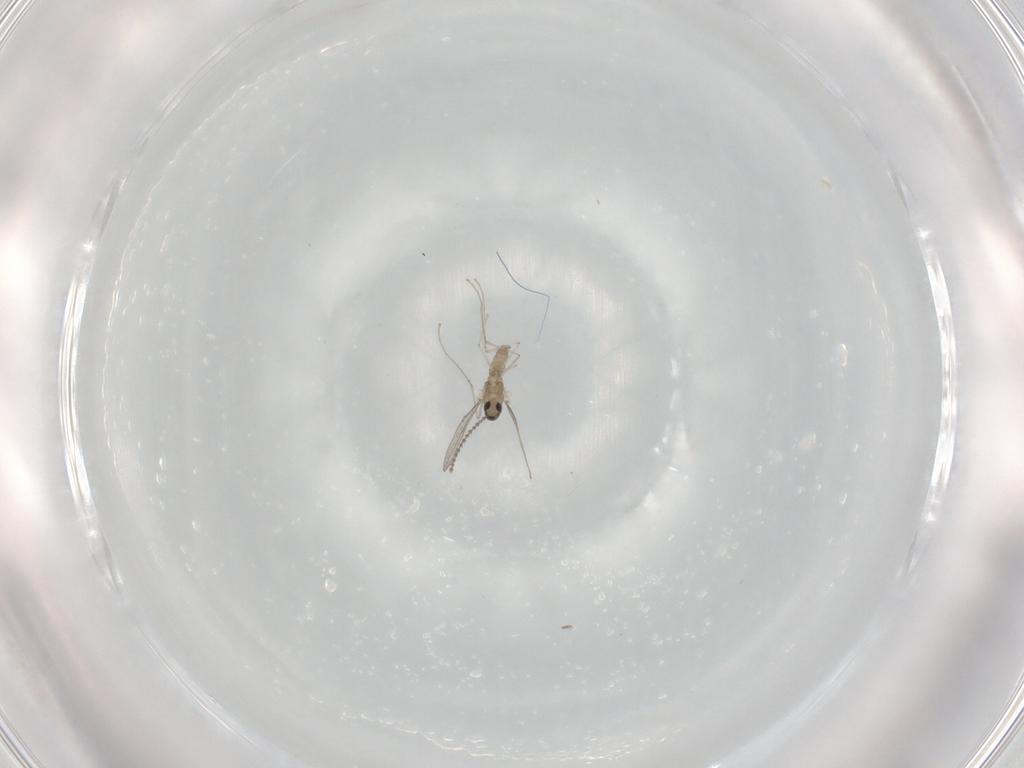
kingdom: Animalia
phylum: Arthropoda
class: Insecta
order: Diptera
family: Cecidomyiidae
